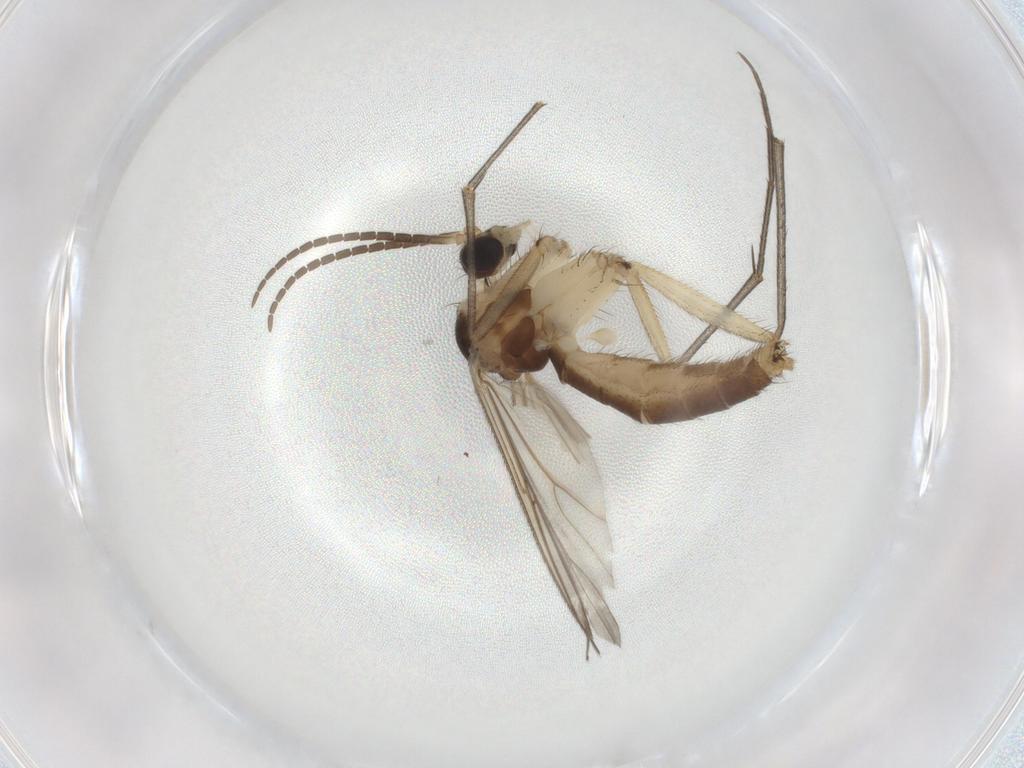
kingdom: Animalia
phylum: Arthropoda
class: Insecta
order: Diptera
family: Cecidomyiidae
